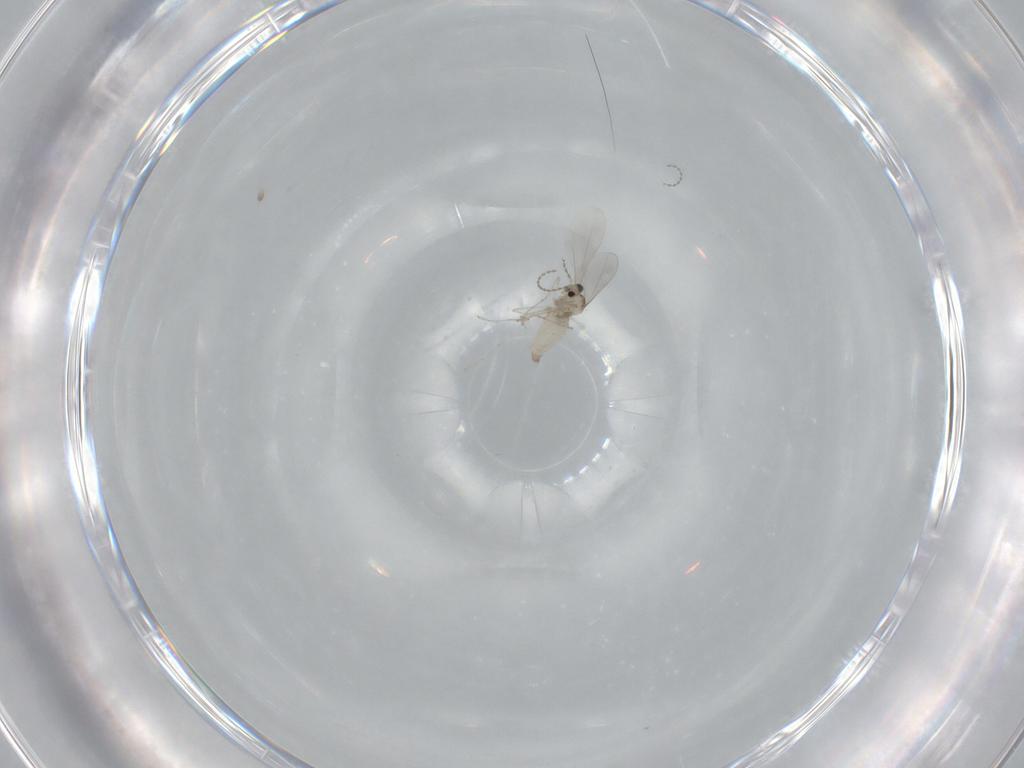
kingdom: Animalia
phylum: Arthropoda
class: Insecta
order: Diptera
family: Cecidomyiidae
